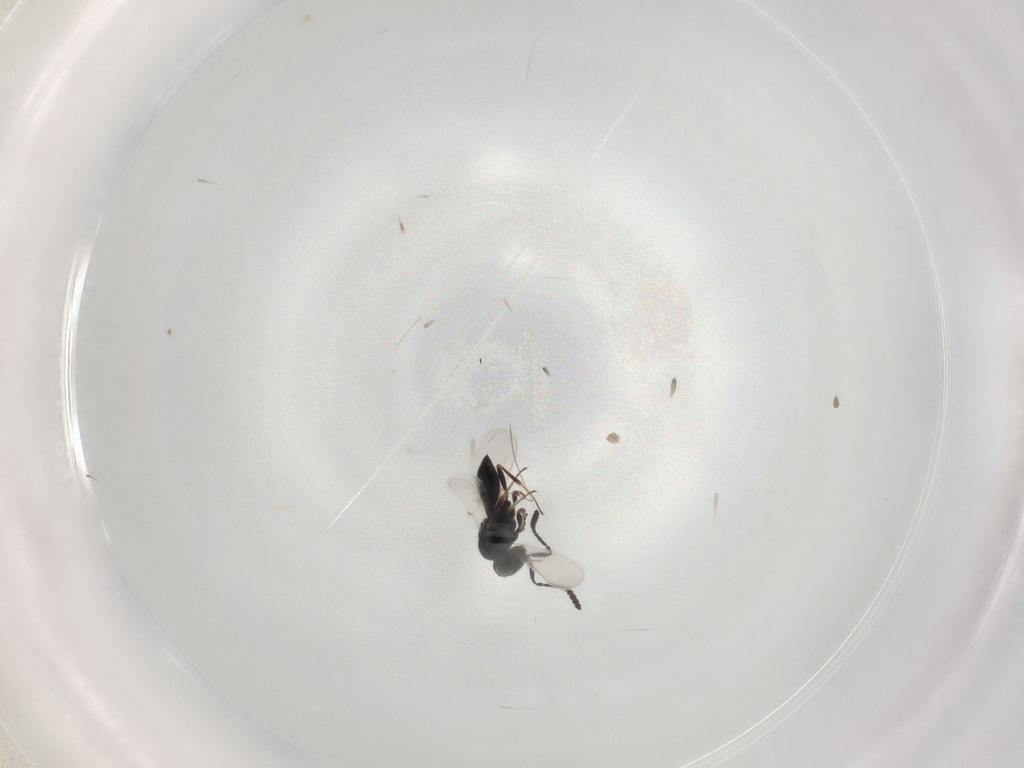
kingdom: Animalia
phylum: Arthropoda
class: Insecta
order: Hymenoptera
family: Scelionidae
